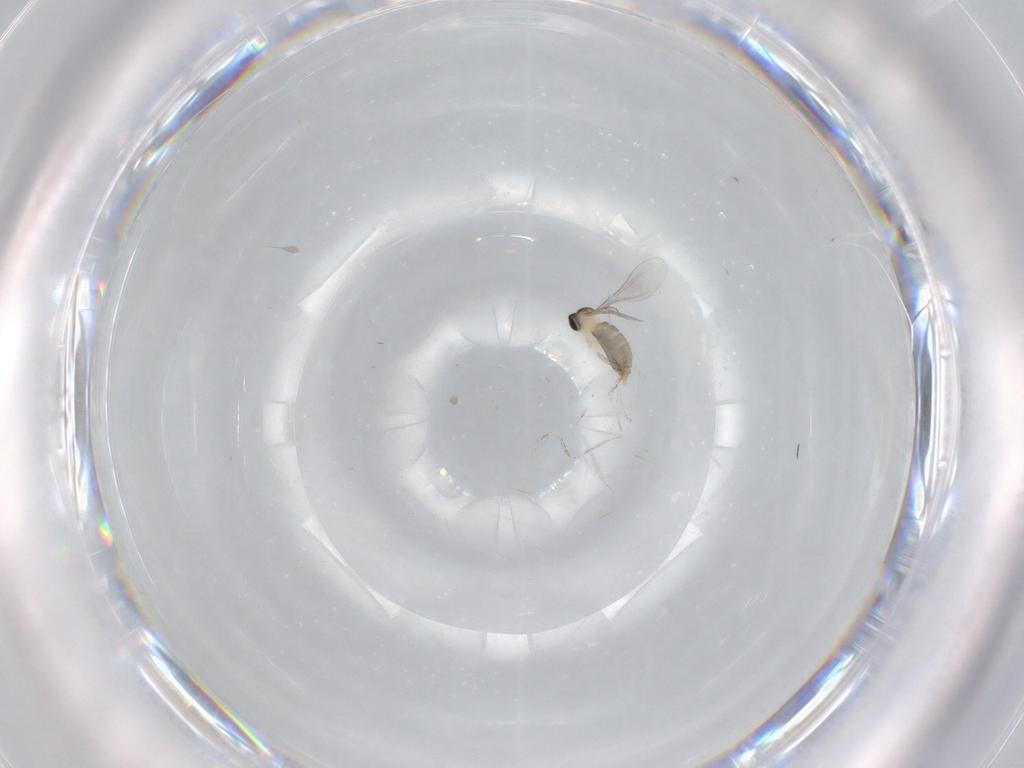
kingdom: Animalia
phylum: Arthropoda
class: Insecta
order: Diptera
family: Cecidomyiidae
